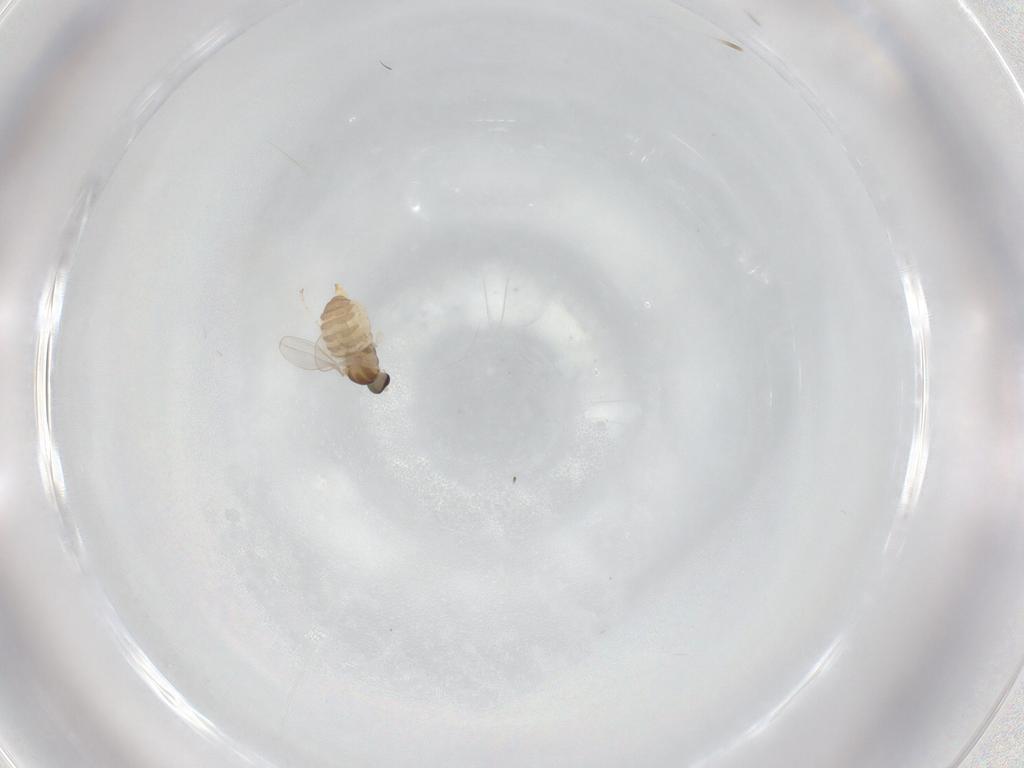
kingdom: Animalia
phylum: Arthropoda
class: Insecta
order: Diptera
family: Cecidomyiidae
